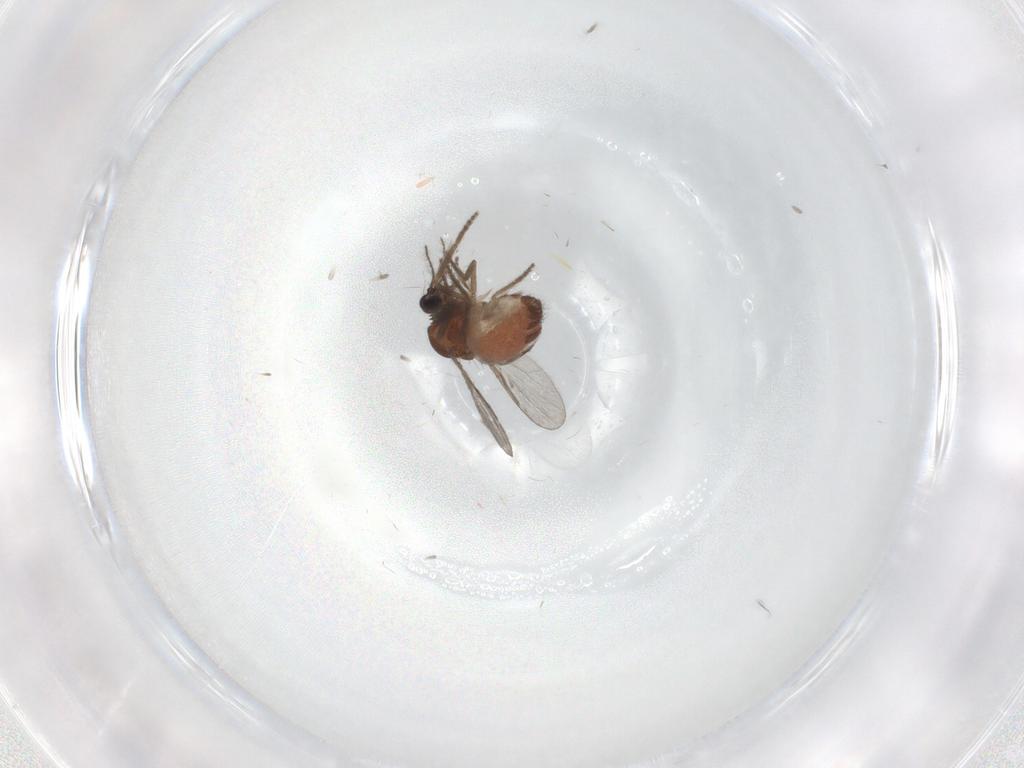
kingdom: Animalia
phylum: Arthropoda
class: Insecta
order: Diptera
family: Ceratopogonidae
